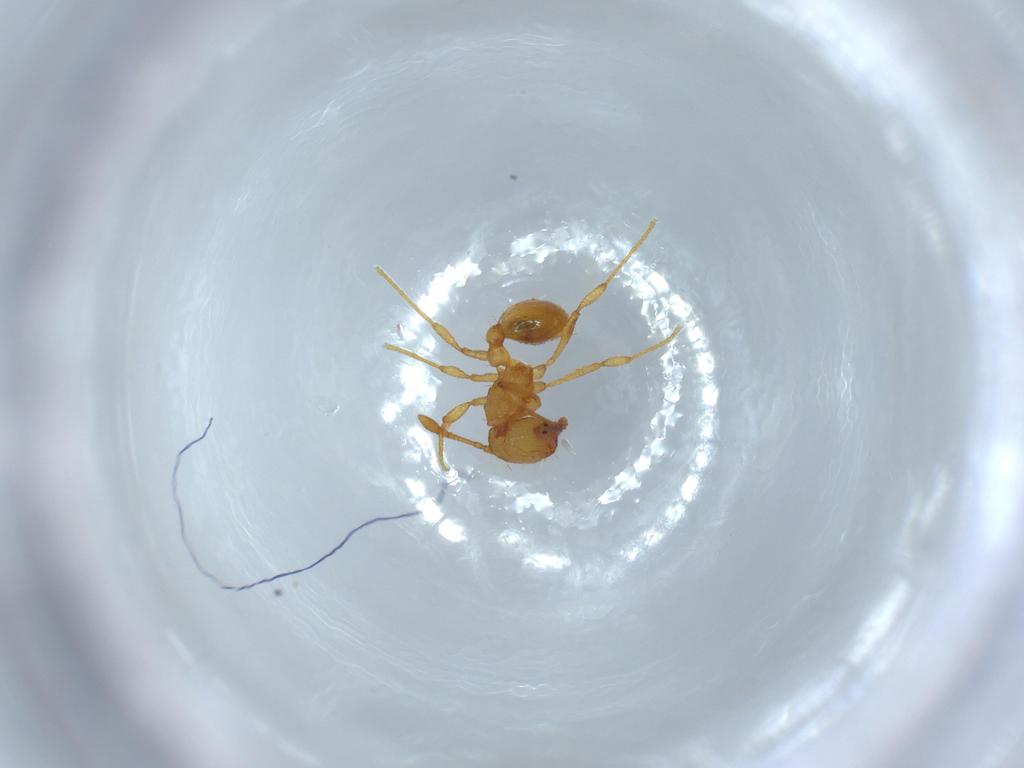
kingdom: Animalia
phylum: Arthropoda
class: Insecta
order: Hymenoptera
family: Formicidae
